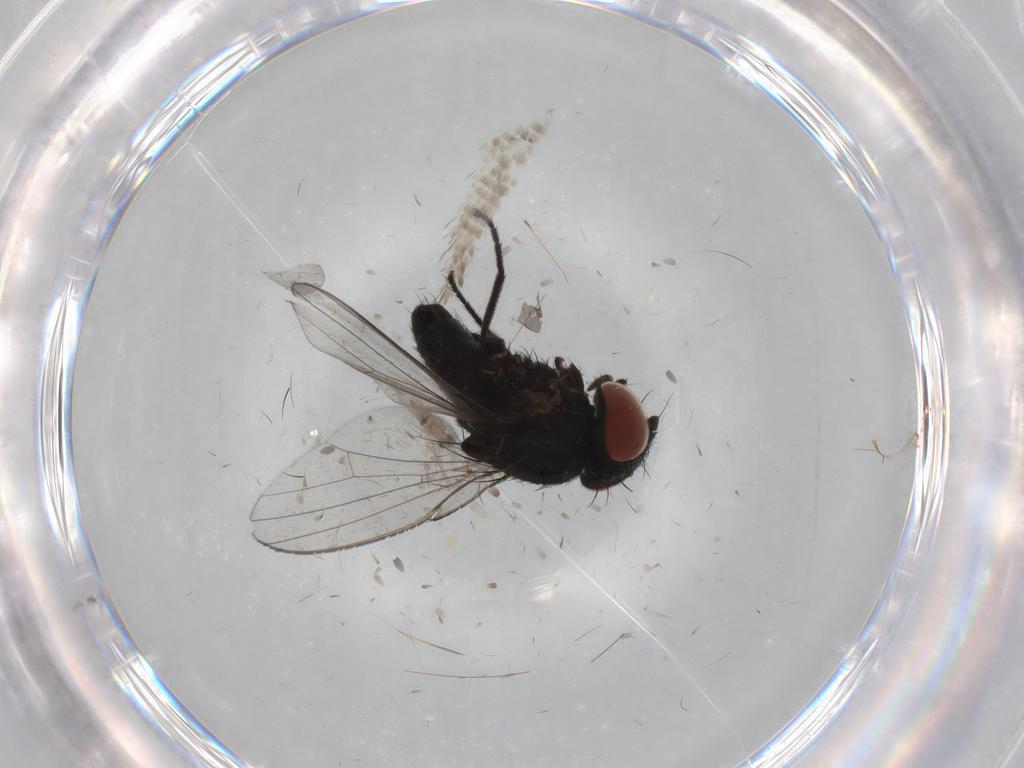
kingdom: Animalia
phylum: Arthropoda
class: Insecta
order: Diptera
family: Milichiidae
